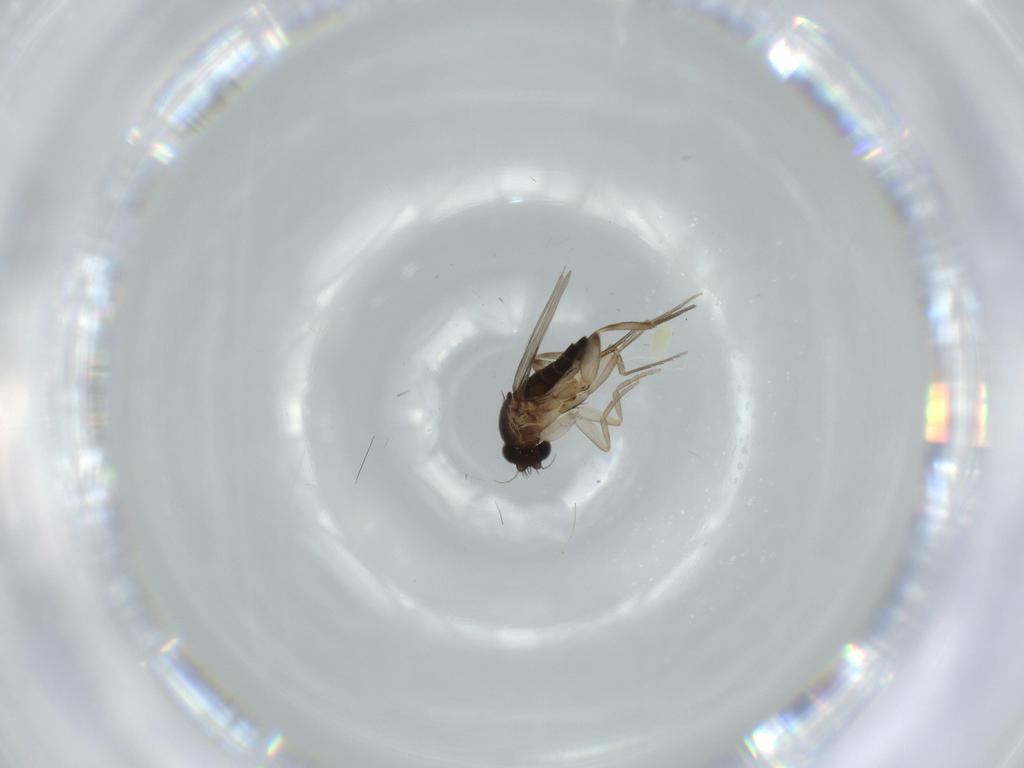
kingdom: Animalia
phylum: Arthropoda
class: Insecta
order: Diptera
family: Phoridae
